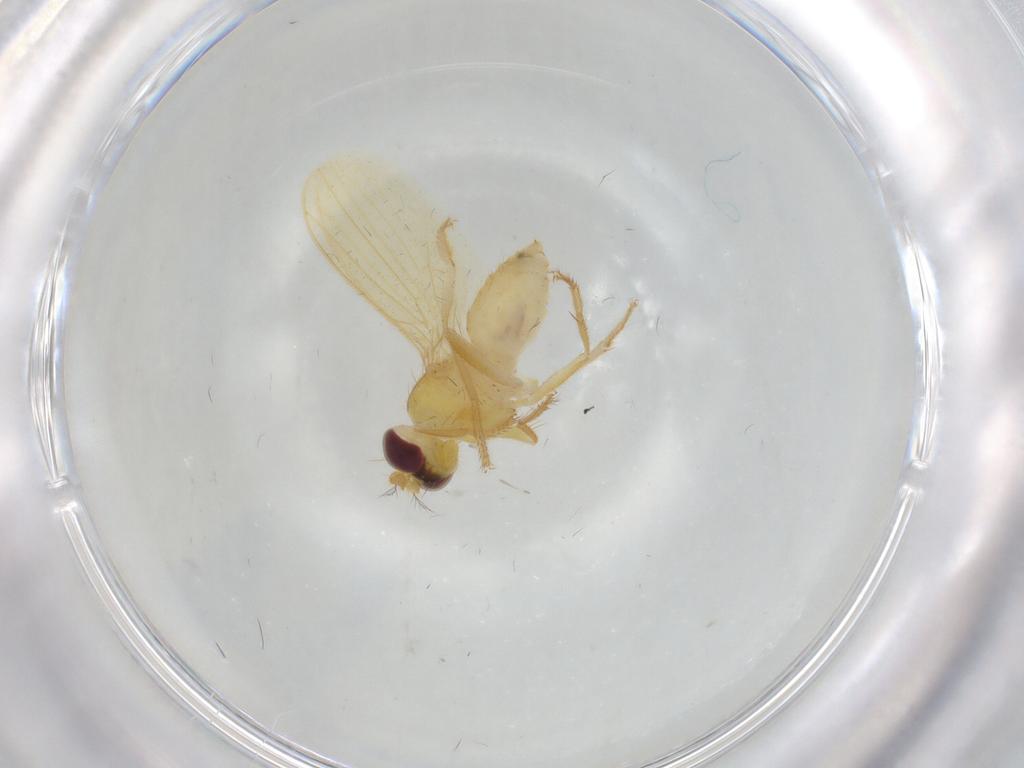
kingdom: Animalia
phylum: Arthropoda
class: Insecta
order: Diptera
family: Periscelididae
